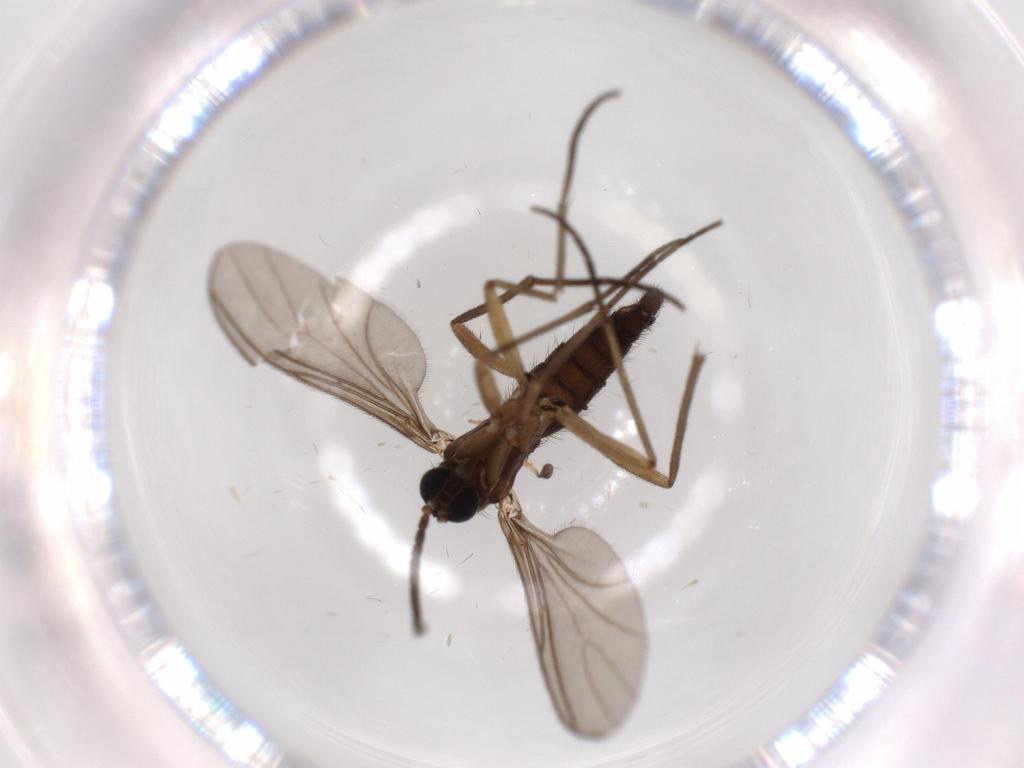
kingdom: Animalia
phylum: Arthropoda
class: Insecta
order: Diptera
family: Sciaridae
